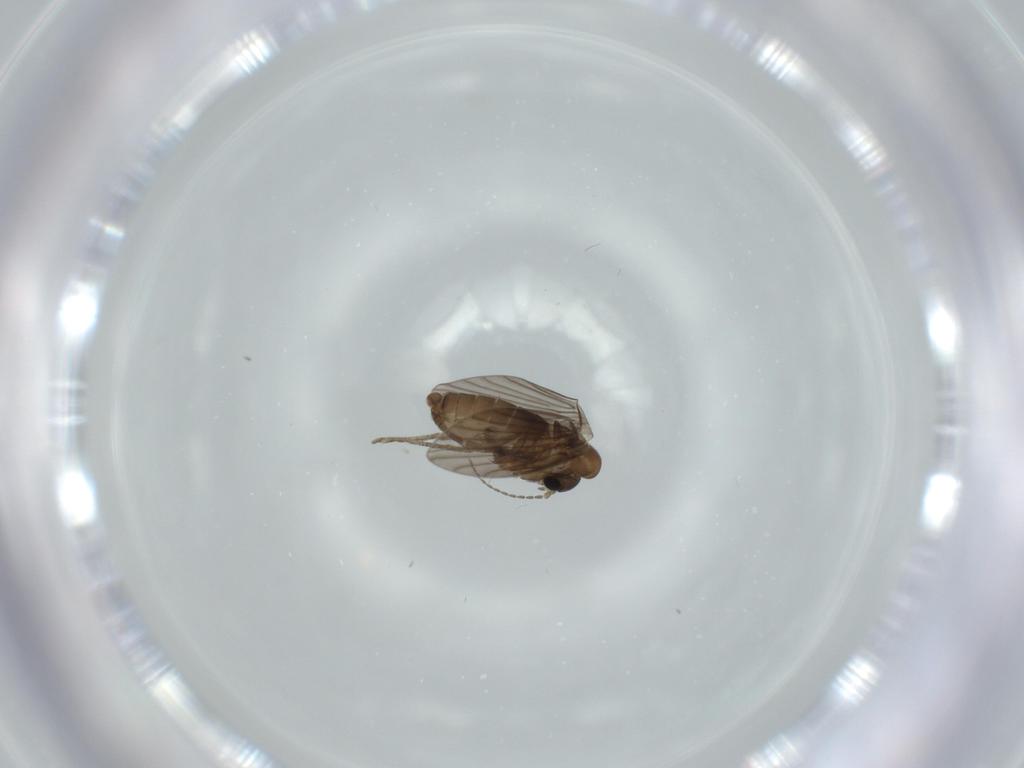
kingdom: Animalia
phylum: Arthropoda
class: Insecta
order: Diptera
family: Psychodidae
